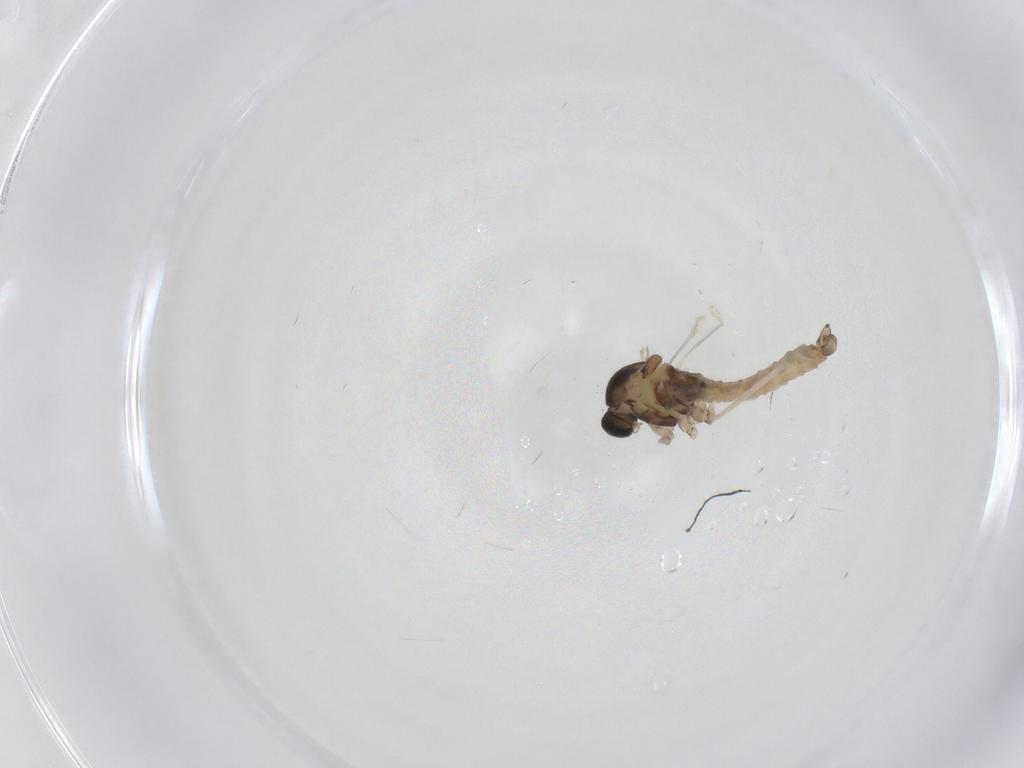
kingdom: Animalia
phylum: Arthropoda
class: Insecta
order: Diptera
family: Cecidomyiidae
